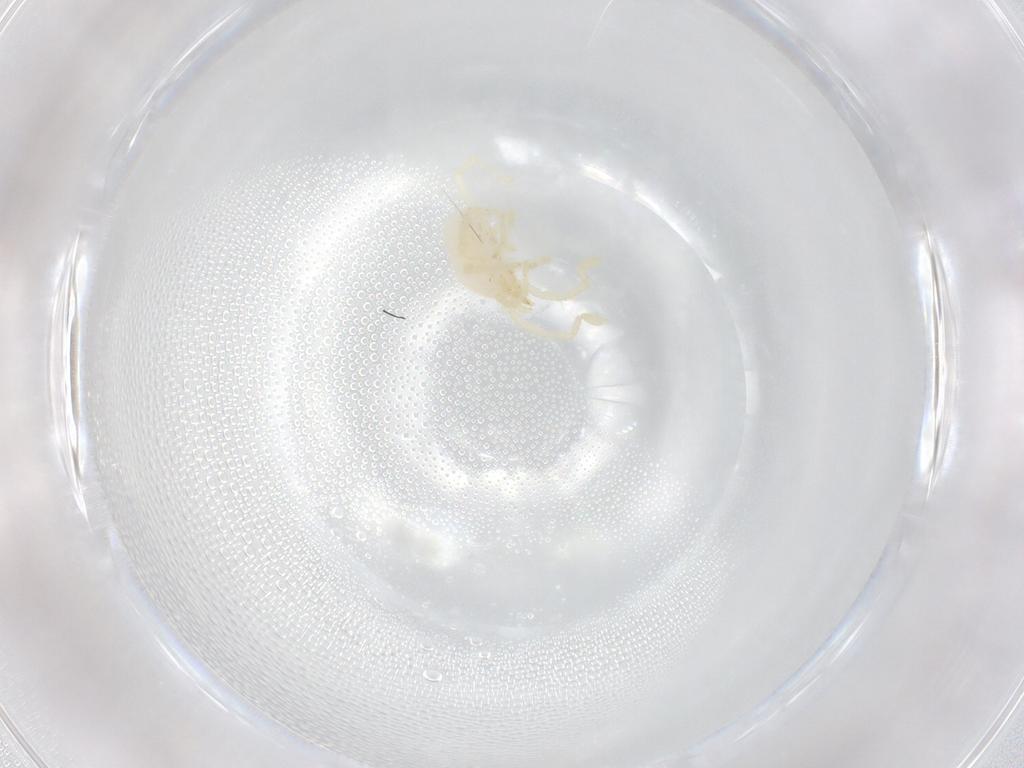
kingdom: Animalia
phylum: Arthropoda
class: Arachnida
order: Trombidiformes
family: Erythraeidae
